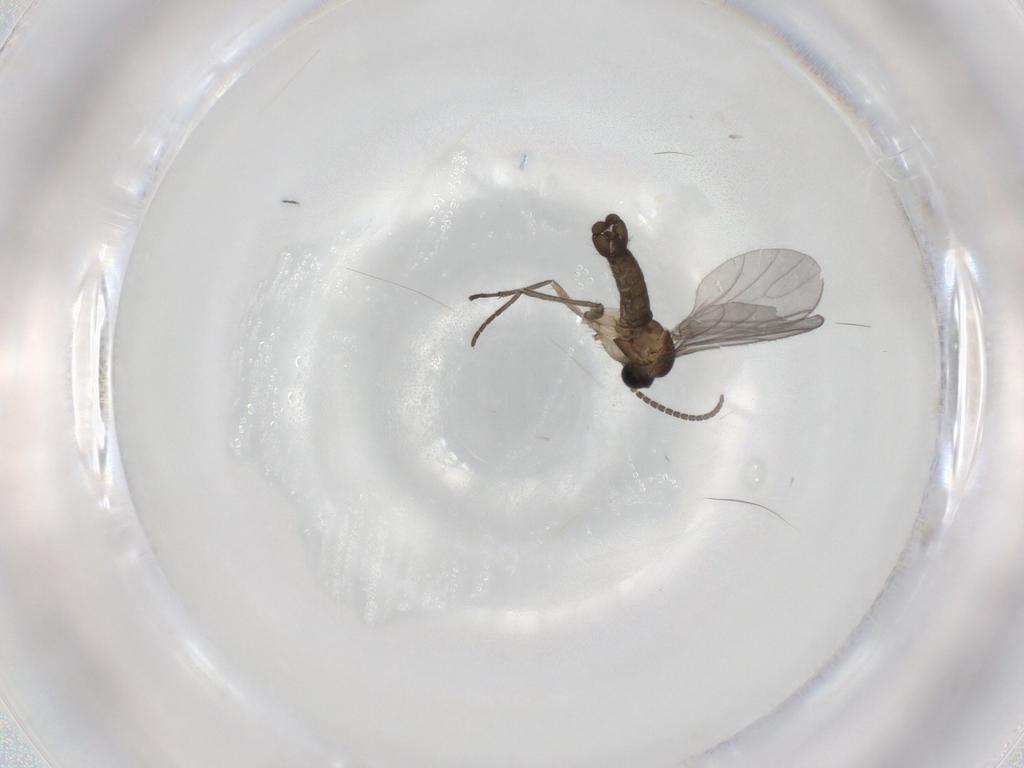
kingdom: Animalia
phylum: Arthropoda
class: Insecta
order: Diptera
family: Sciaridae
